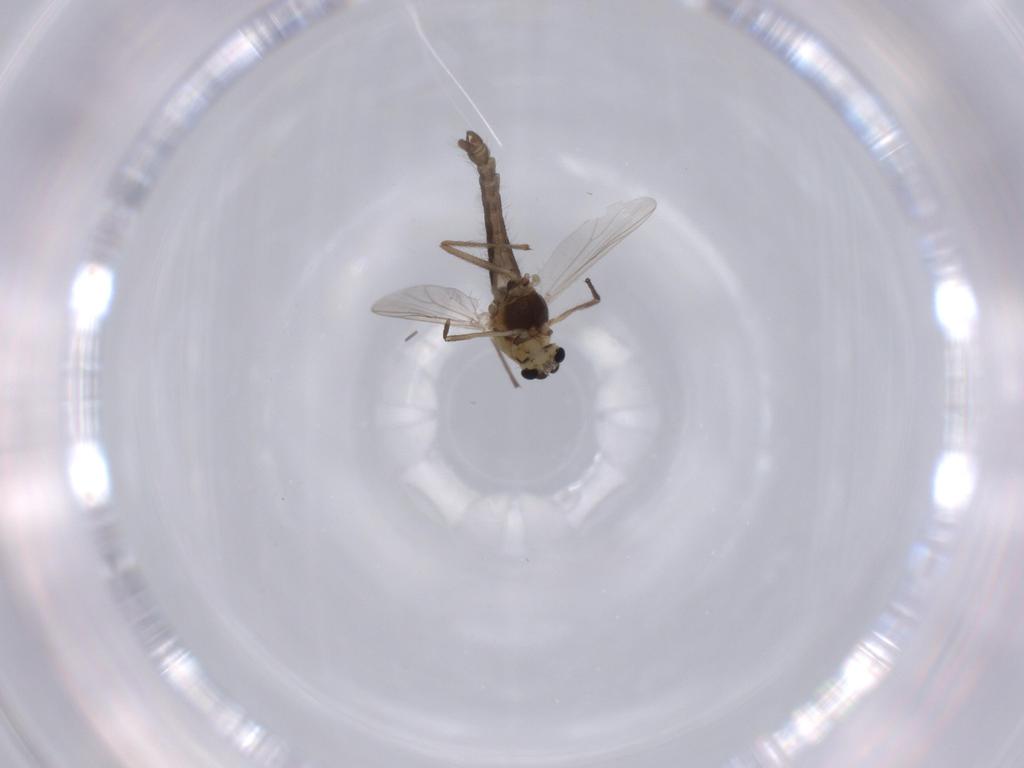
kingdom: Animalia
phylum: Arthropoda
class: Insecta
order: Diptera
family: Chironomidae
